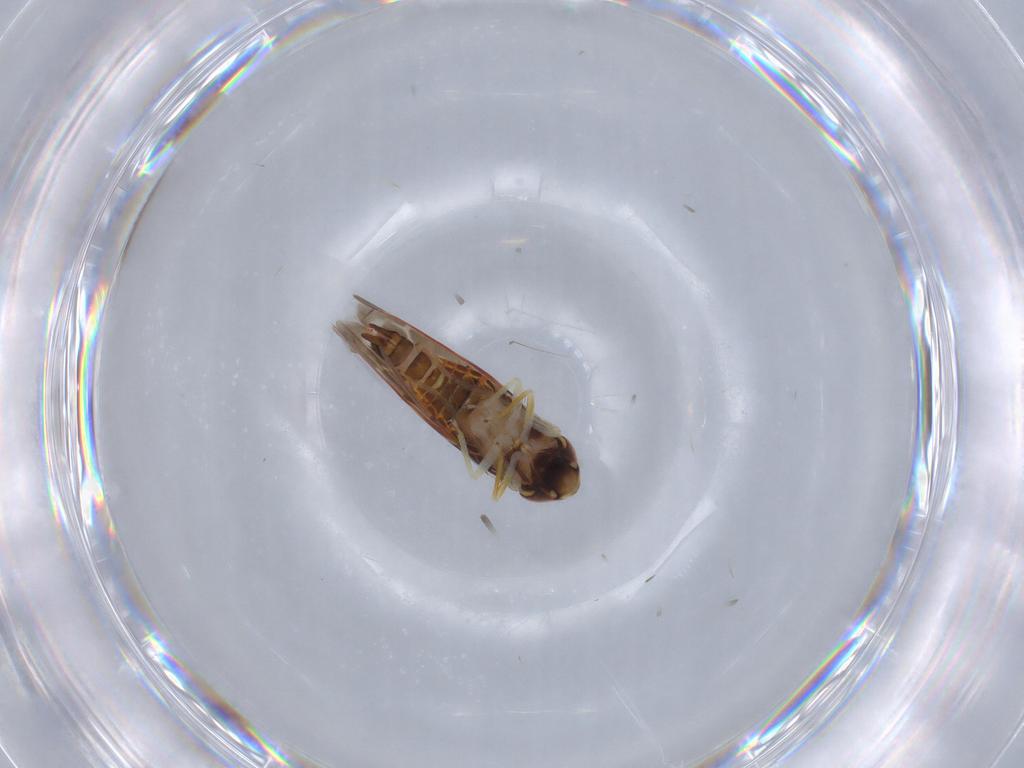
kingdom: Animalia
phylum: Arthropoda
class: Insecta
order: Hemiptera
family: Cicadellidae
